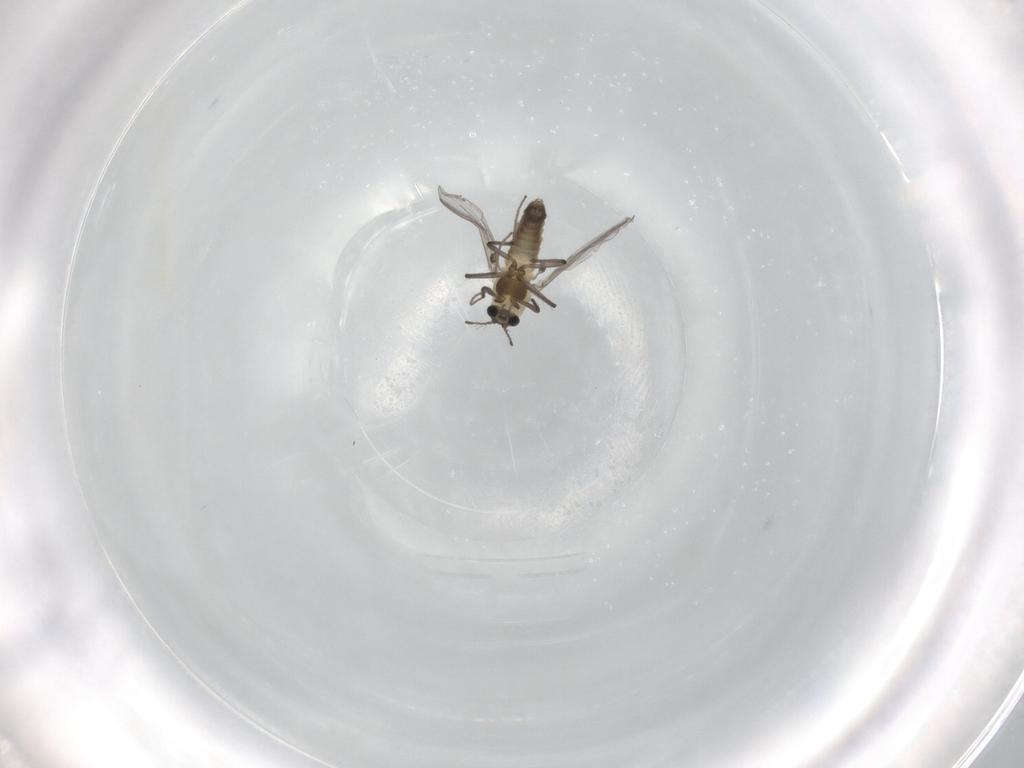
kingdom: Animalia
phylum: Arthropoda
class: Insecta
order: Diptera
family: Chironomidae
